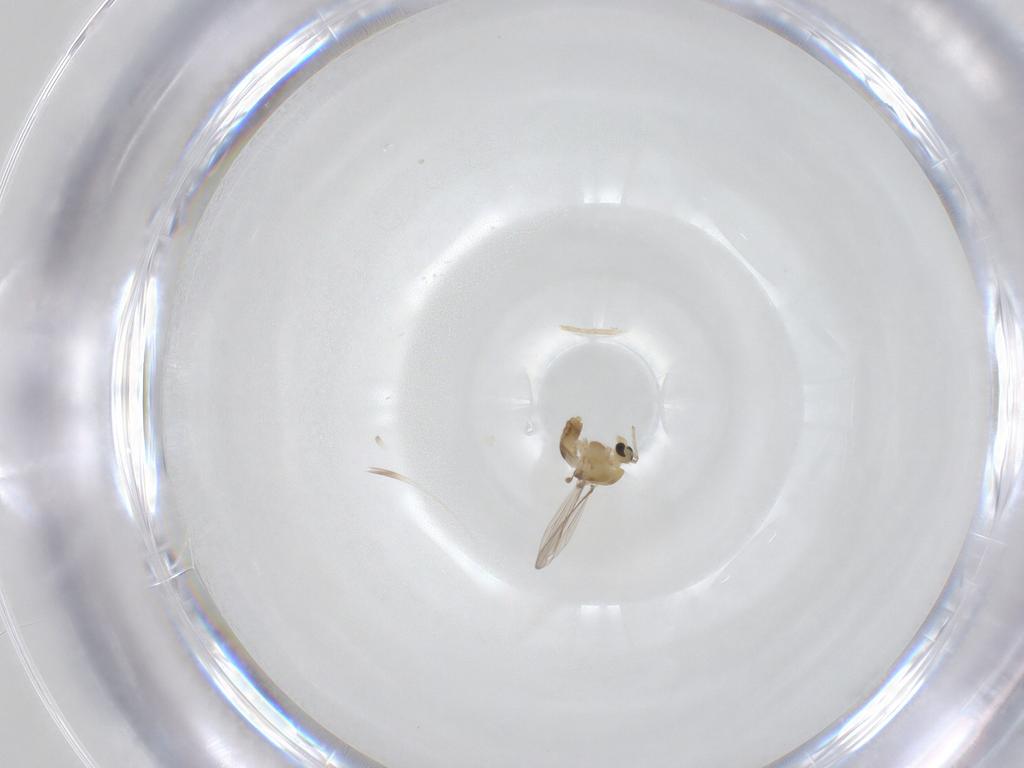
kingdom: Animalia
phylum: Arthropoda
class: Insecta
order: Diptera
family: Chironomidae
